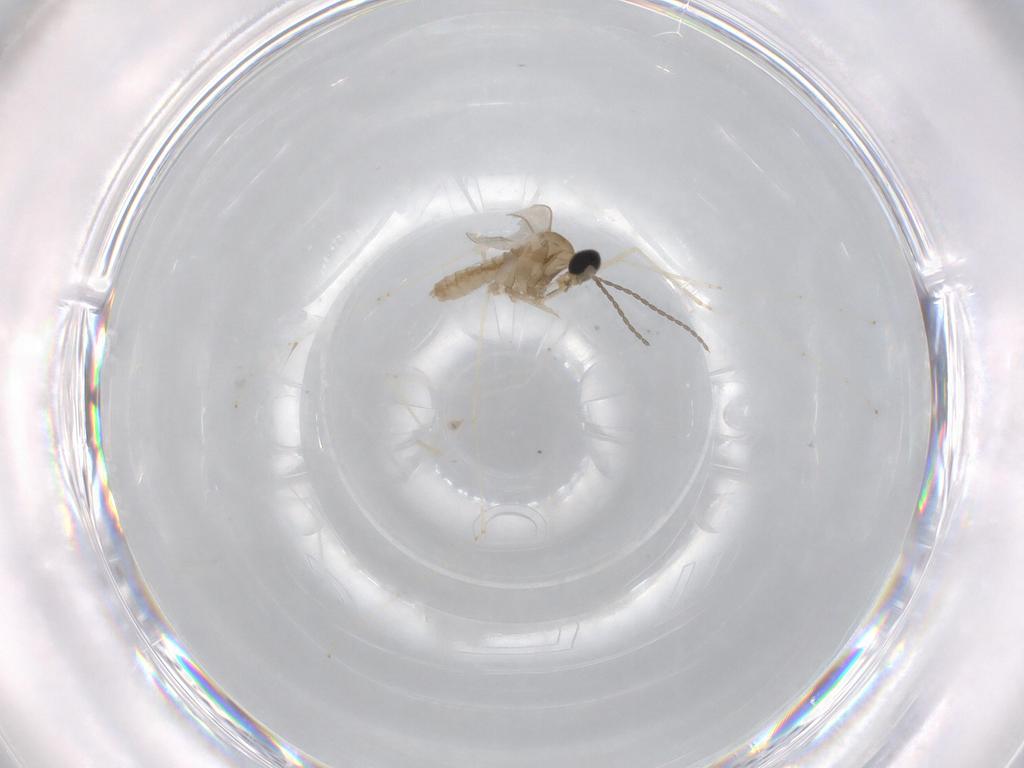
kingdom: Animalia
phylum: Arthropoda
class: Insecta
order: Diptera
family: Cecidomyiidae
